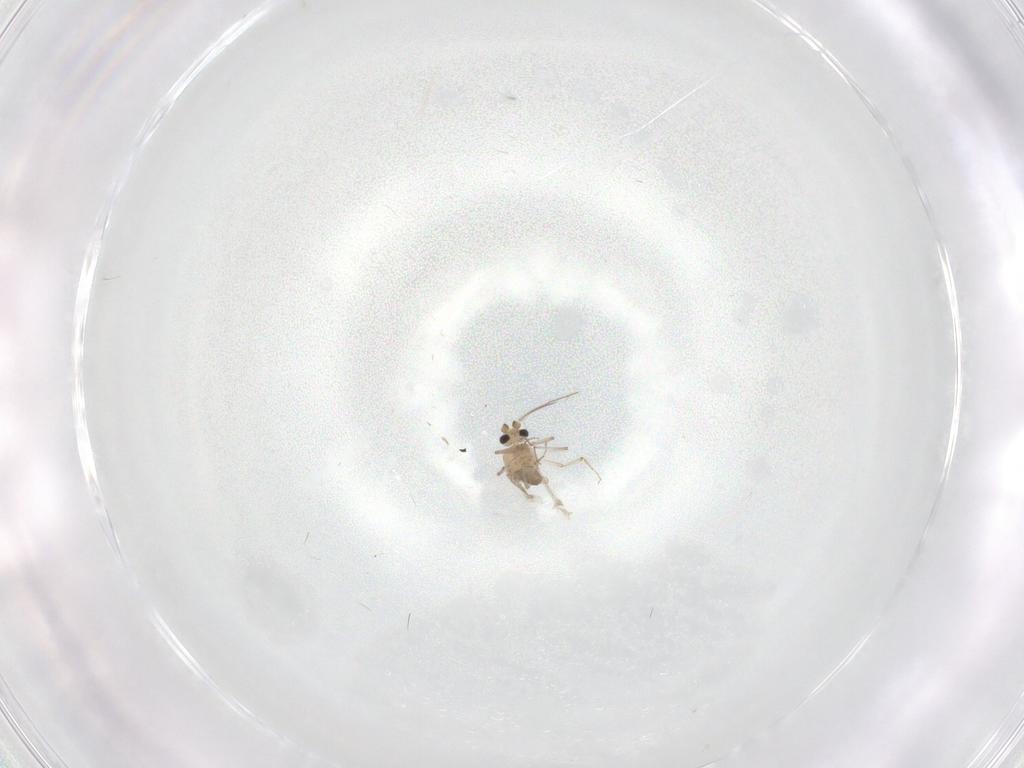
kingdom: Animalia
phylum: Arthropoda
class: Insecta
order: Diptera
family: Ceratopogonidae
